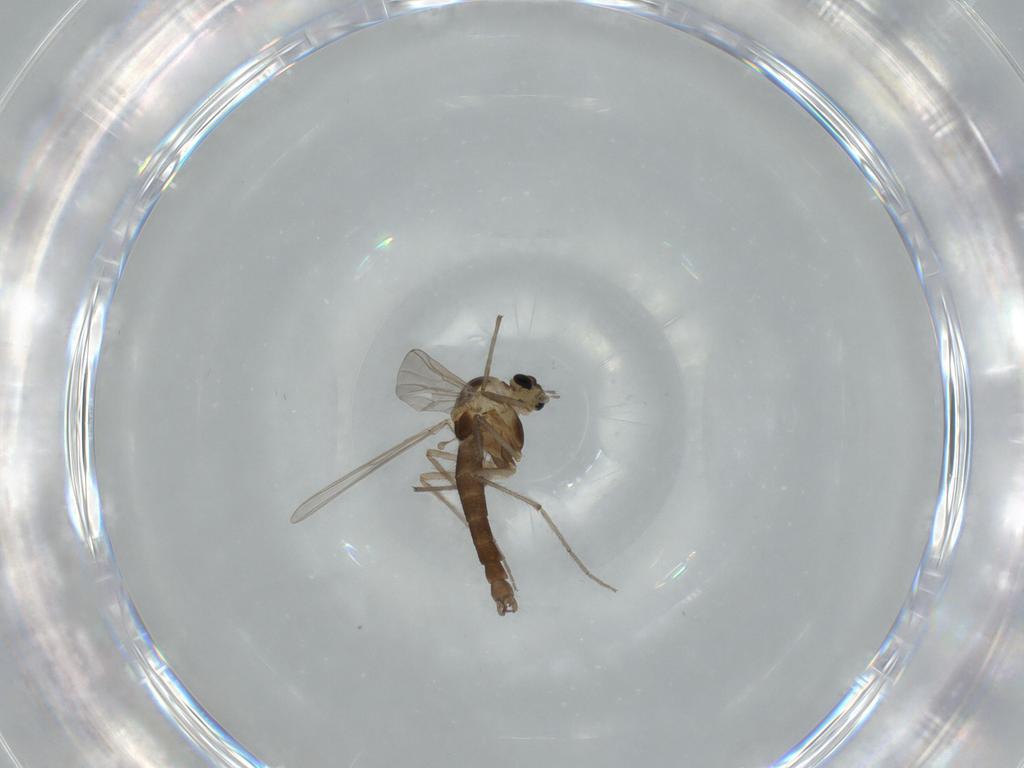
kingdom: Animalia
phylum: Arthropoda
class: Insecta
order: Diptera
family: Chironomidae
